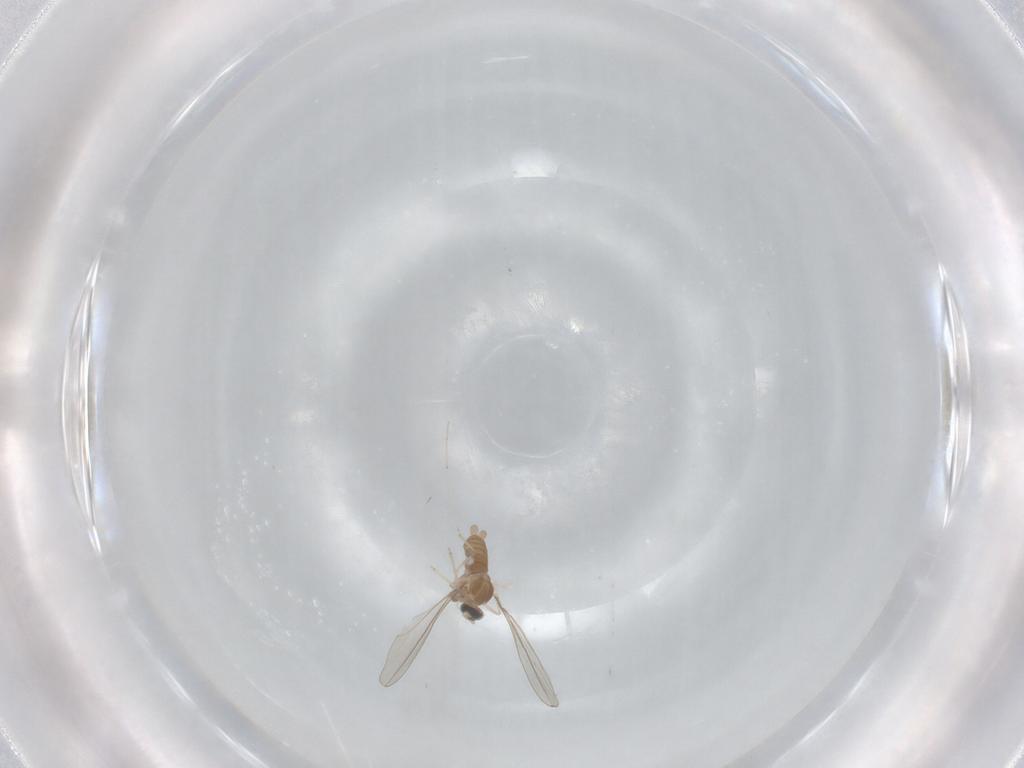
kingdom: Animalia
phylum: Arthropoda
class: Insecta
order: Diptera
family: Cecidomyiidae
